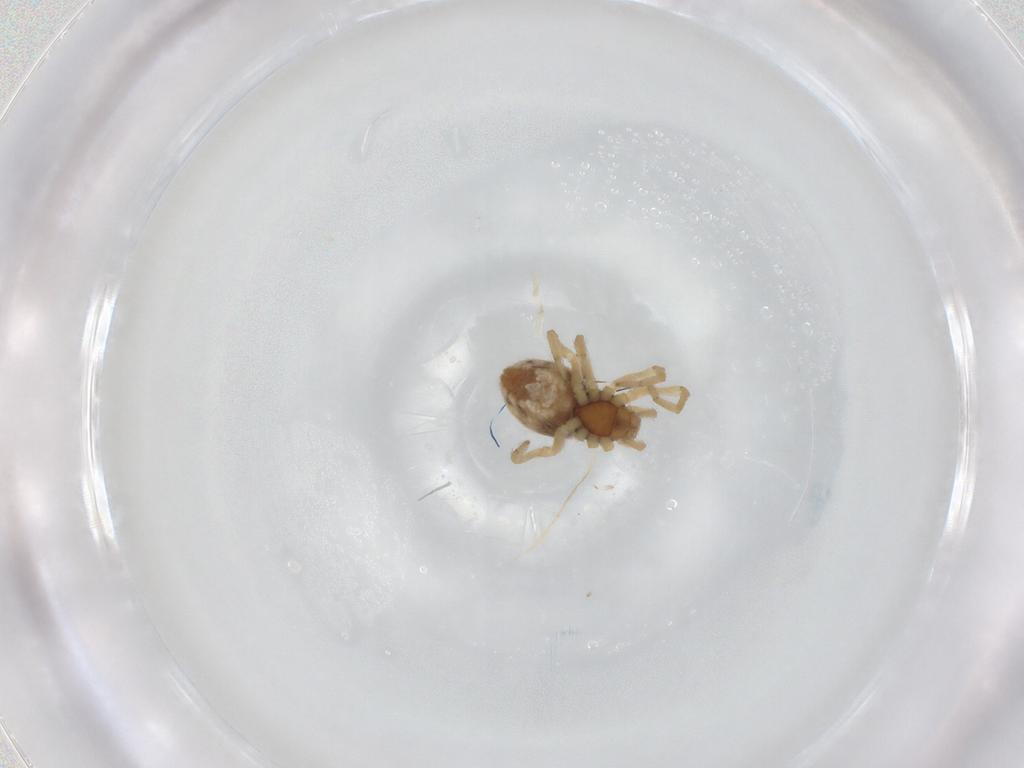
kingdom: Animalia
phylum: Arthropoda
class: Arachnida
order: Araneae
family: Dictynidae
